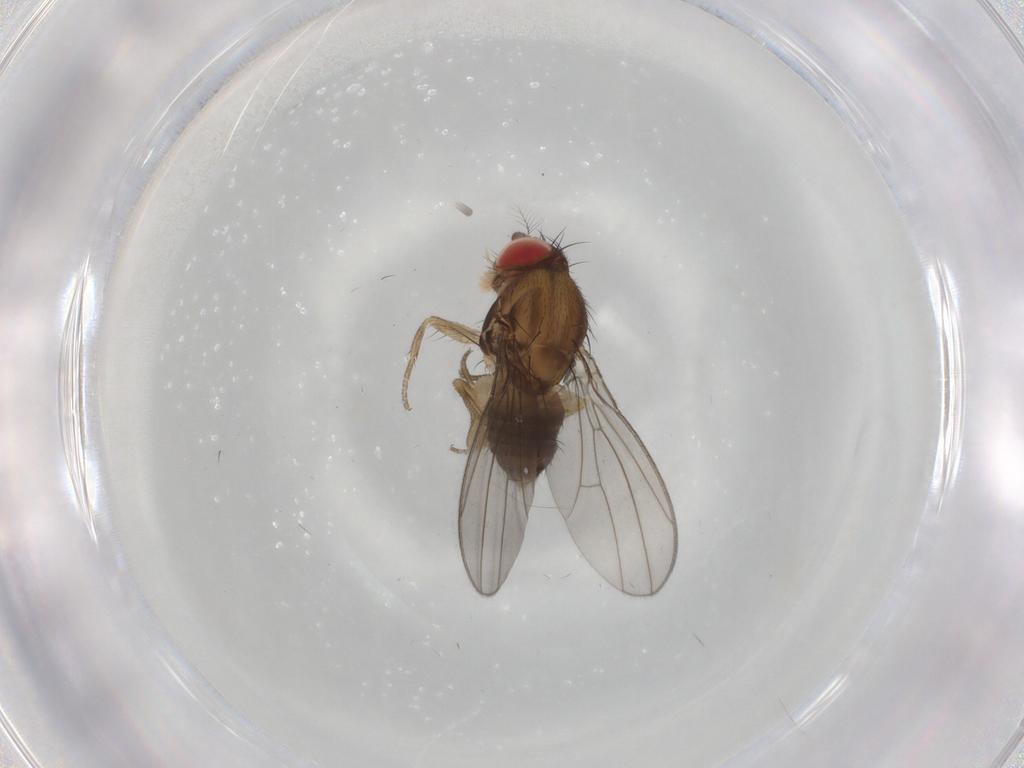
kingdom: Animalia
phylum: Arthropoda
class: Insecta
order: Diptera
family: Drosophilidae
